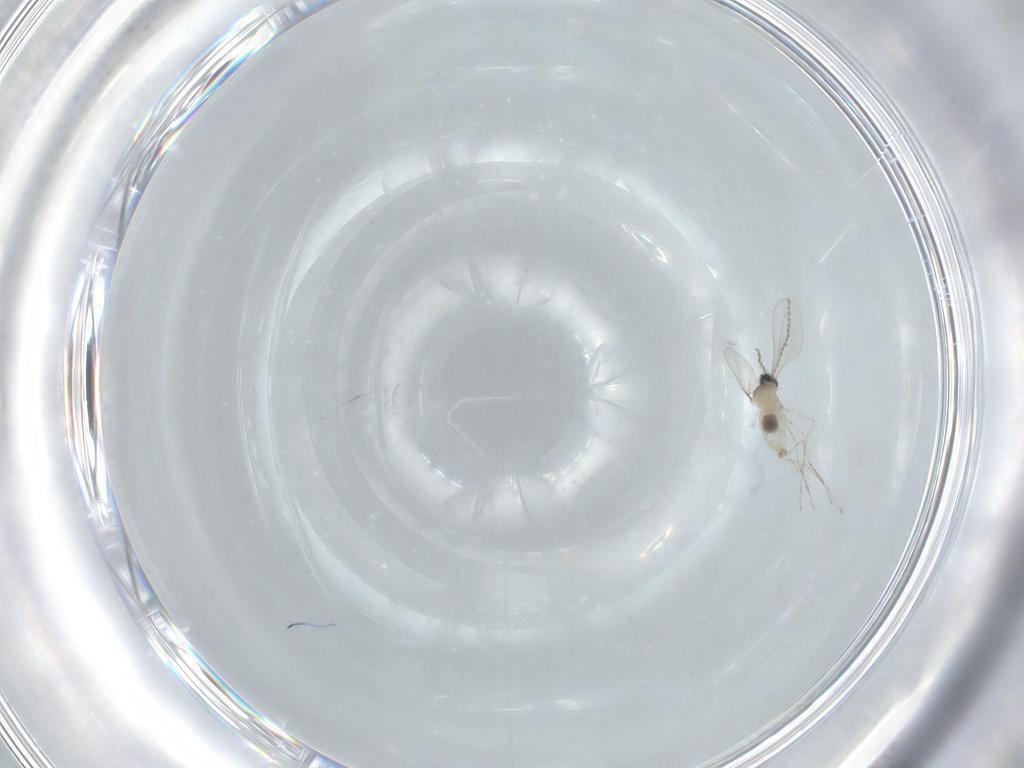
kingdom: Animalia
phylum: Arthropoda
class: Insecta
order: Diptera
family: Cecidomyiidae
